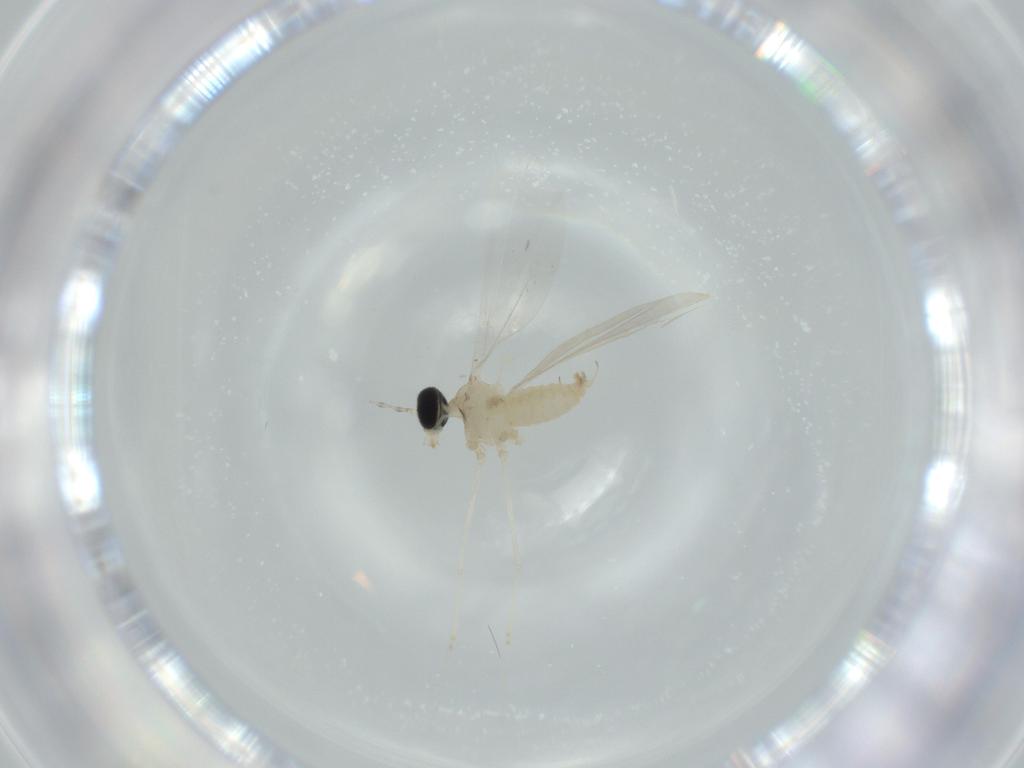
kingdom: Animalia
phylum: Arthropoda
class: Insecta
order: Diptera
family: Cecidomyiidae
